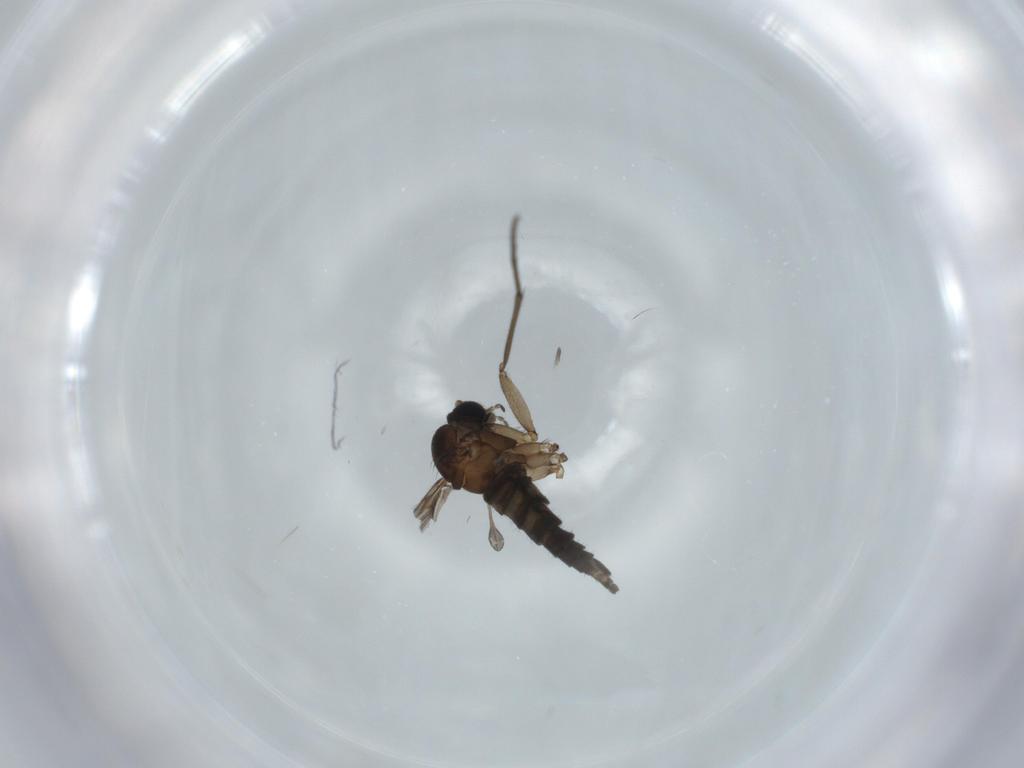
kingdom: Animalia
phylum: Arthropoda
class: Insecta
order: Diptera
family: Sciaridae
